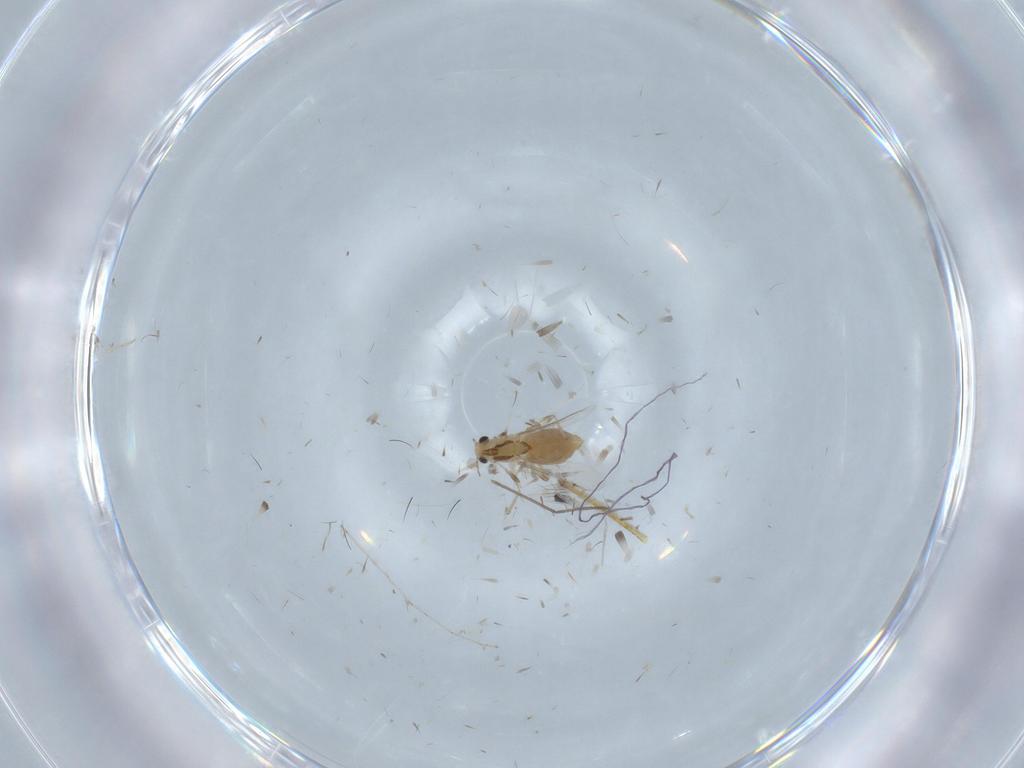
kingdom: Animalia
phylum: Arthropoda
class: Insecta
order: Diptera
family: Chironomidae
